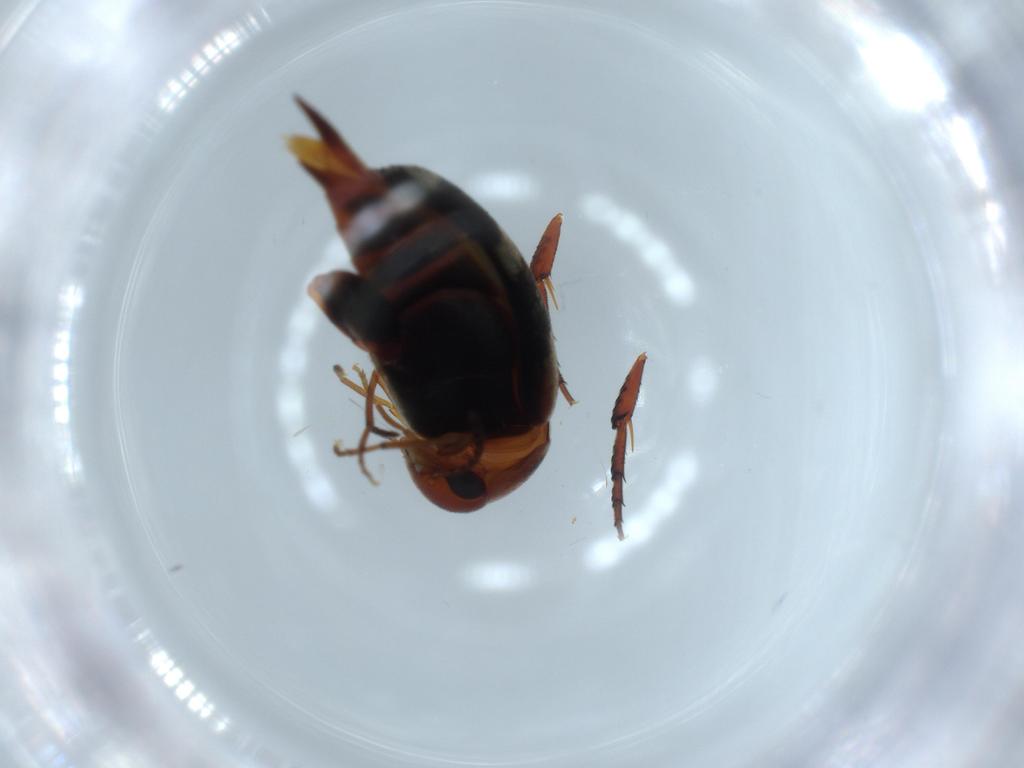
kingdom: Animalia
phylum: Arthropoda
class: Insecta
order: Coleoptera
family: Mordellidae
